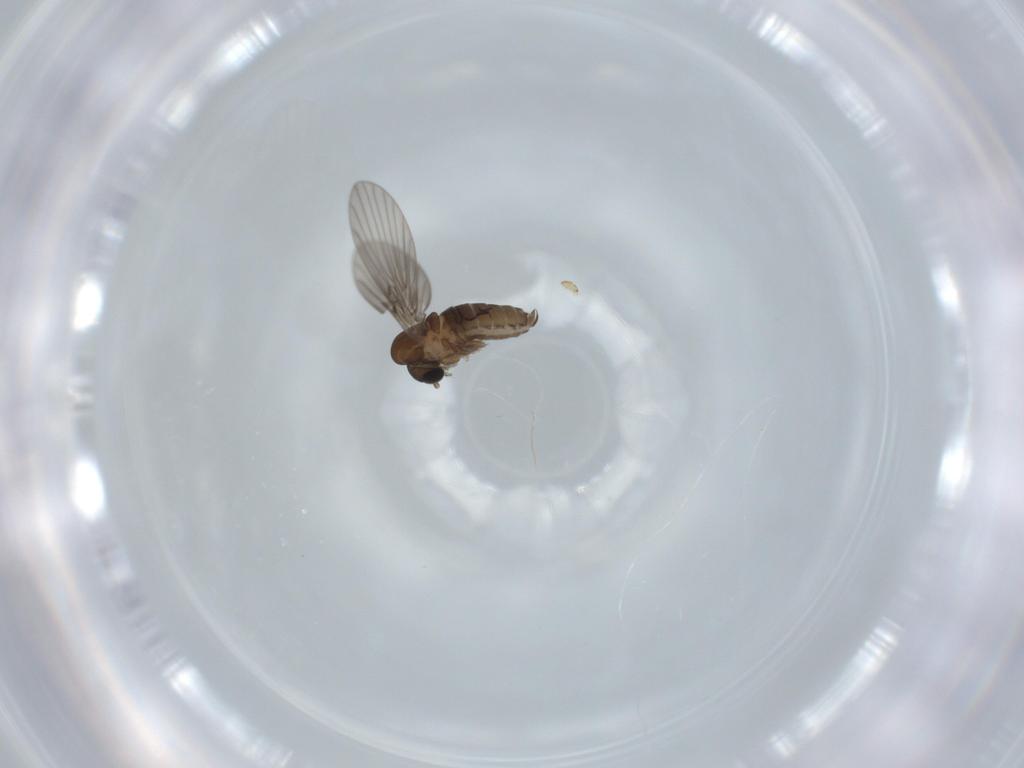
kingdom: Animalia
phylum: Arthropoda
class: Insecta
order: Diptera
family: Psychodidae
